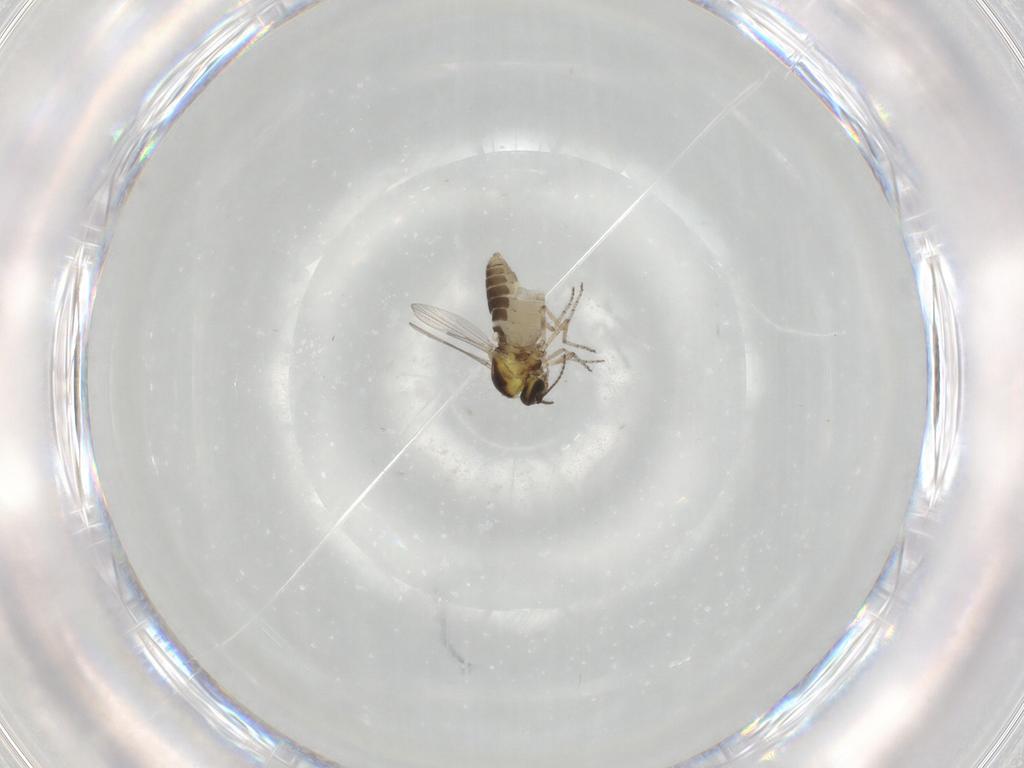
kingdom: Animalia
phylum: Arthropoda
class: Insecta
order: Diptera
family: Ceratopogonidae
